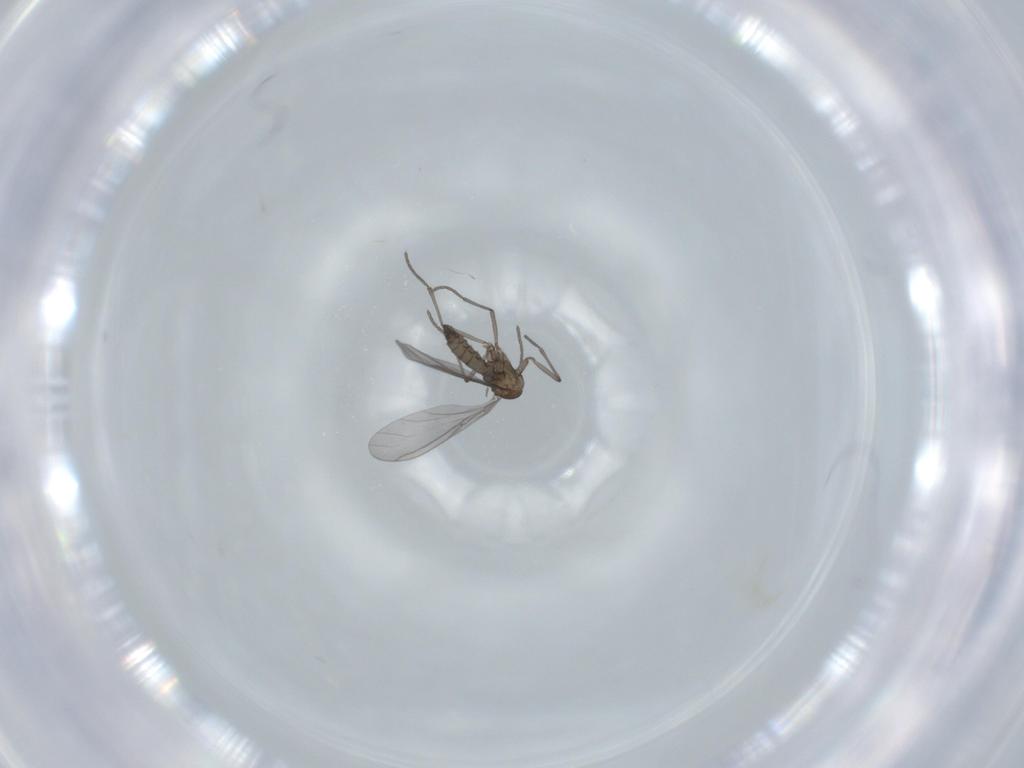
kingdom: Animalia
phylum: Arthropoda
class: Insecta
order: Diptera
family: Sciaridae
